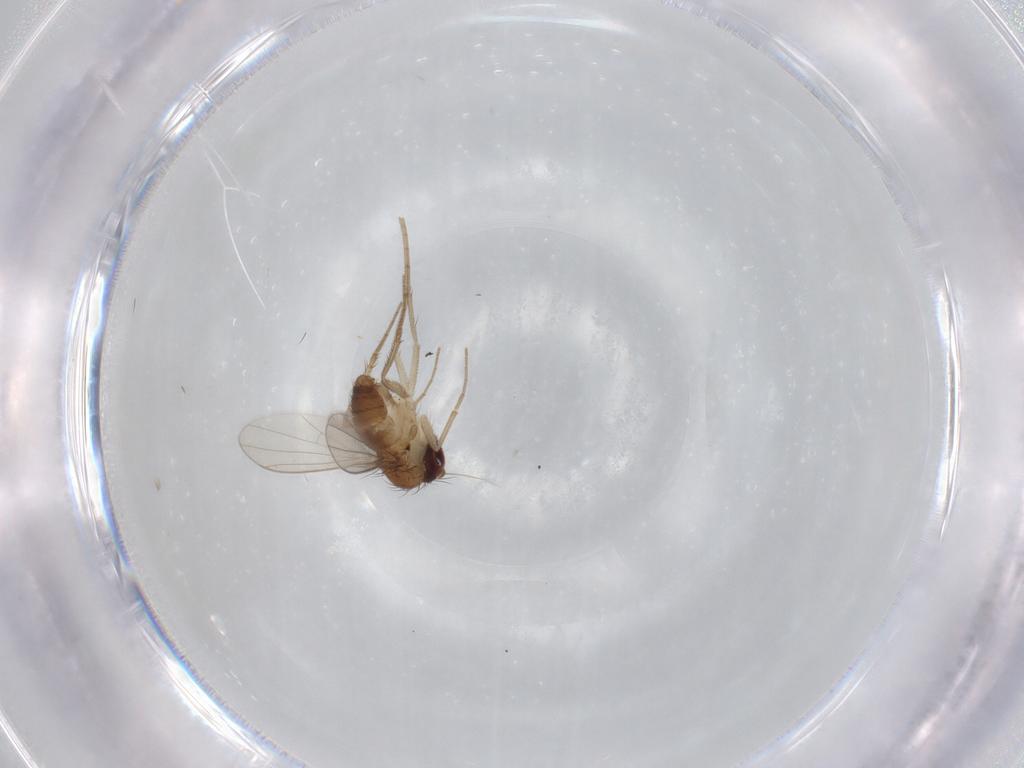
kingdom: Animalia
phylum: Arthropoda
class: Insecta
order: Diptera
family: Dolichopodidae
